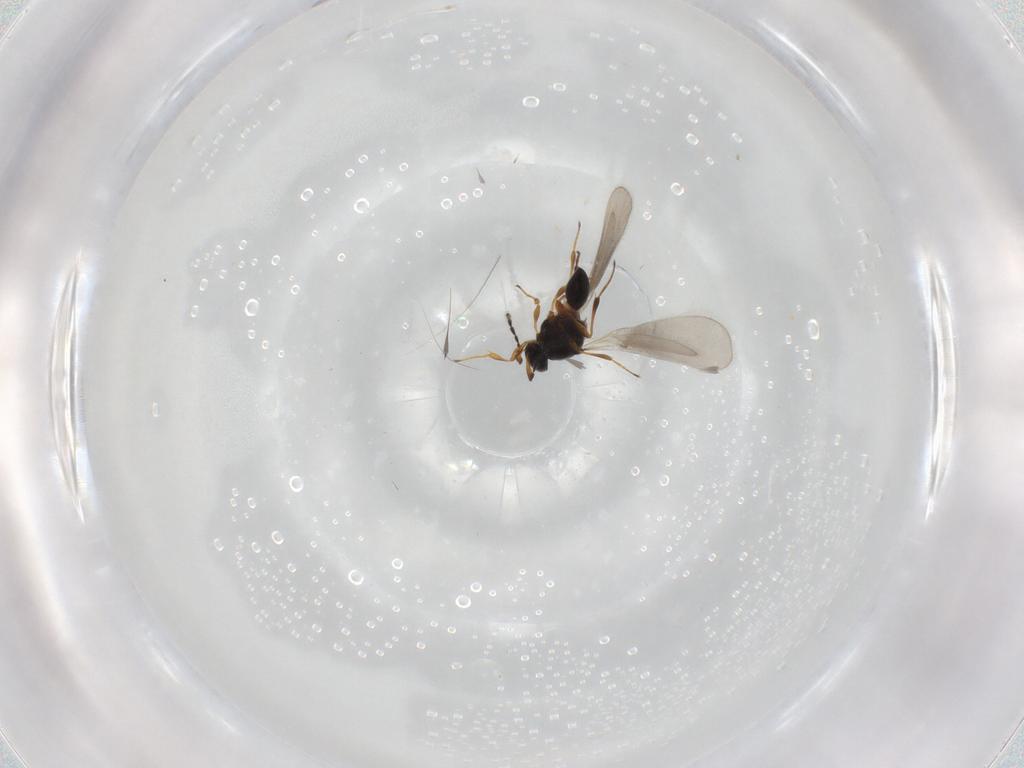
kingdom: Animalia
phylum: Arthropoda
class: Insecta
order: Hymenoptera
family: Platygastridae
